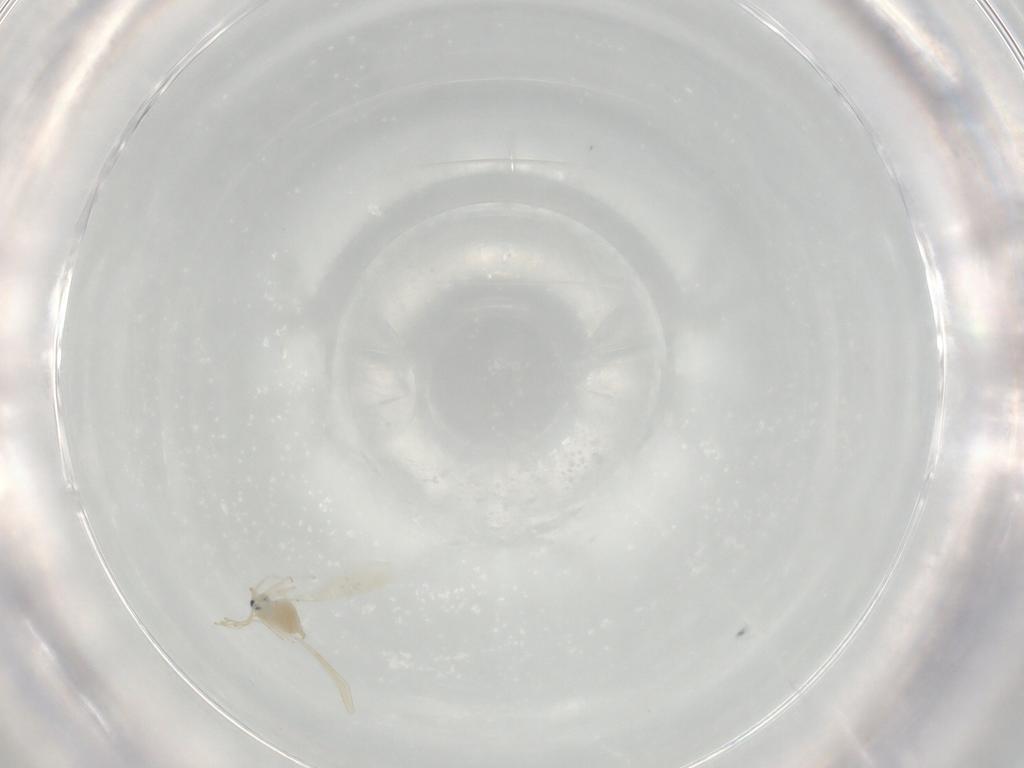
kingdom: Animalia
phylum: Arthropoda
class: Insecta
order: Diptera
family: Cecidomyiidae
